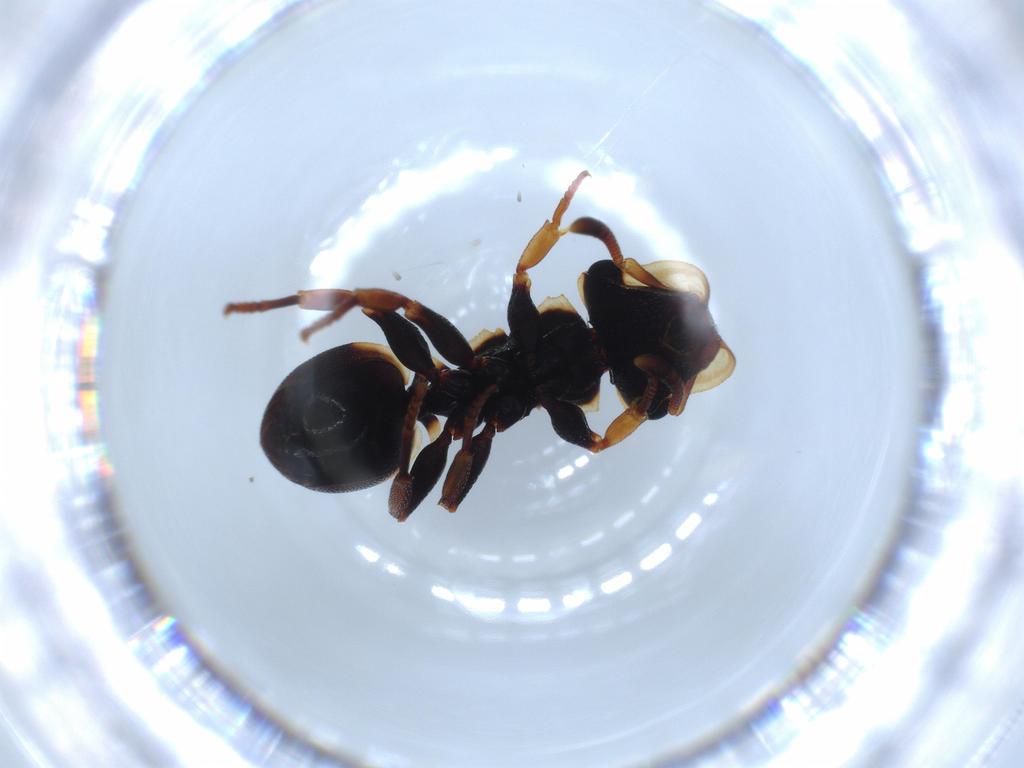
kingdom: Animalia
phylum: Arthropoda
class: Insecta
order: Hymenoptera
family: Formicidae
